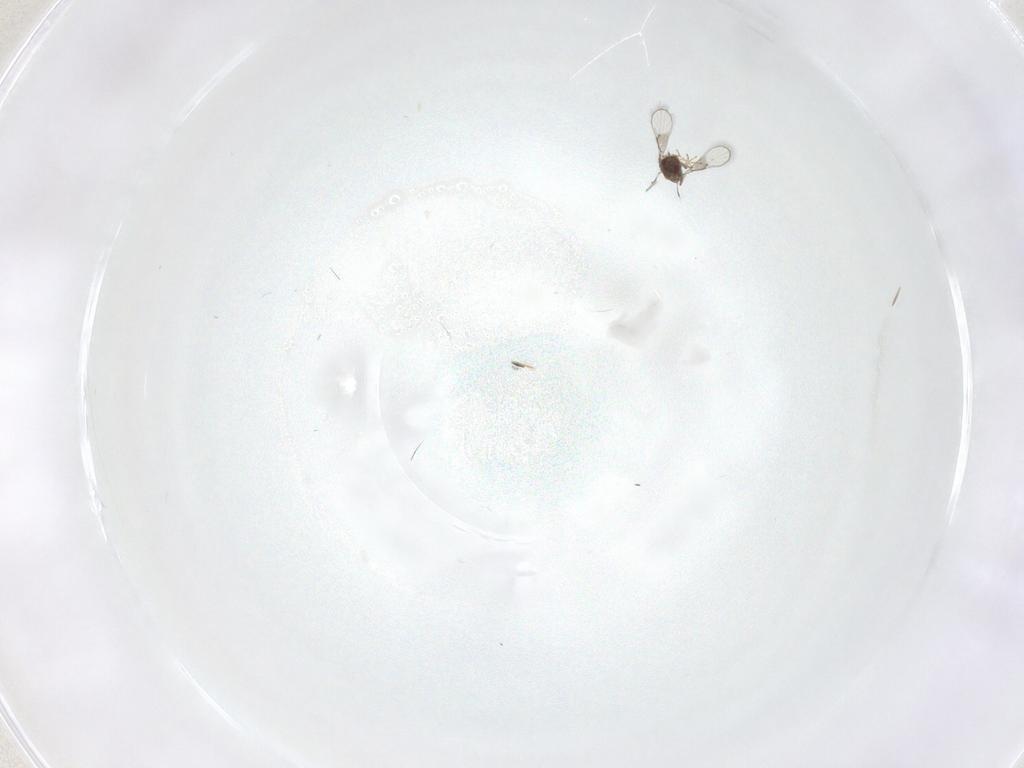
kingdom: Animalia
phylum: Arthropoda
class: Insecta
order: Hymenoptera
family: Trichogrammatidae
